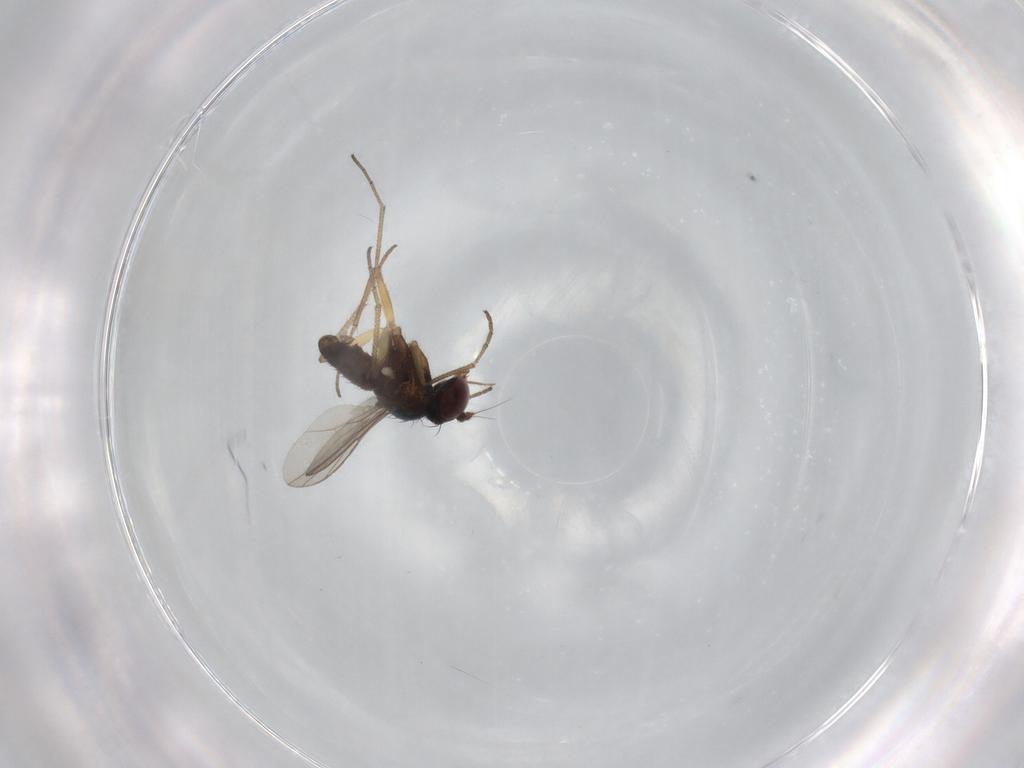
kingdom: Animalia
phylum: Arthropoda
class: Insecta
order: Diptera
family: Dolichopodidae
